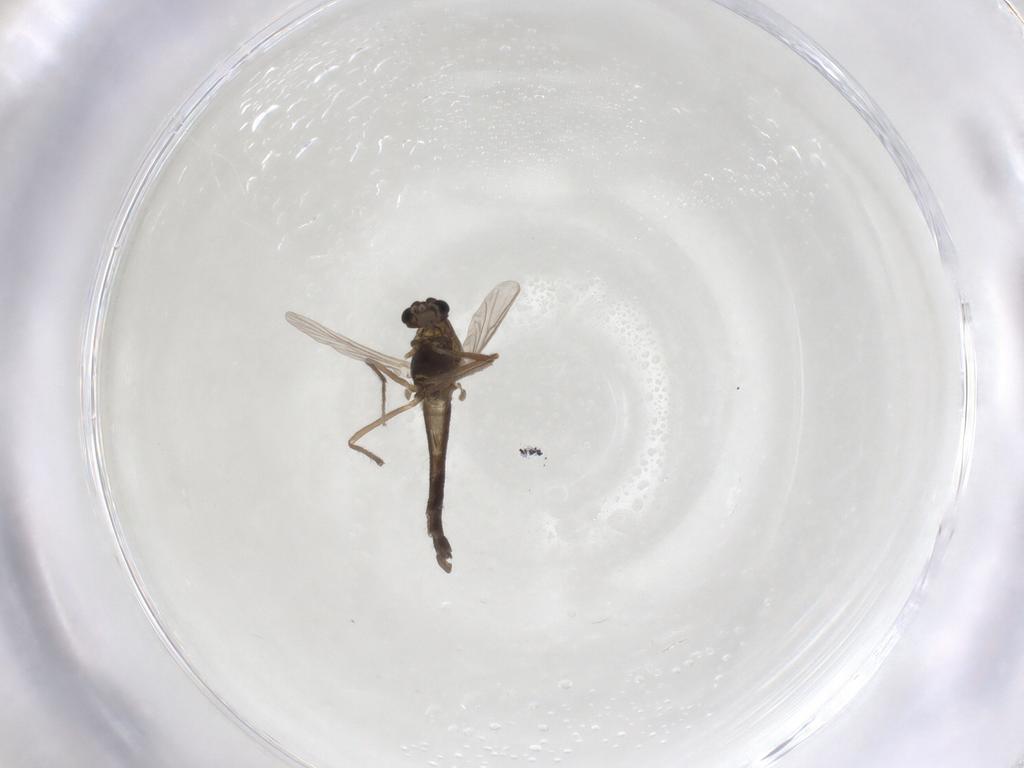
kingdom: Animalia
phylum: Arthropoda
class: Insecta
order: Diptera
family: Chironomidae
